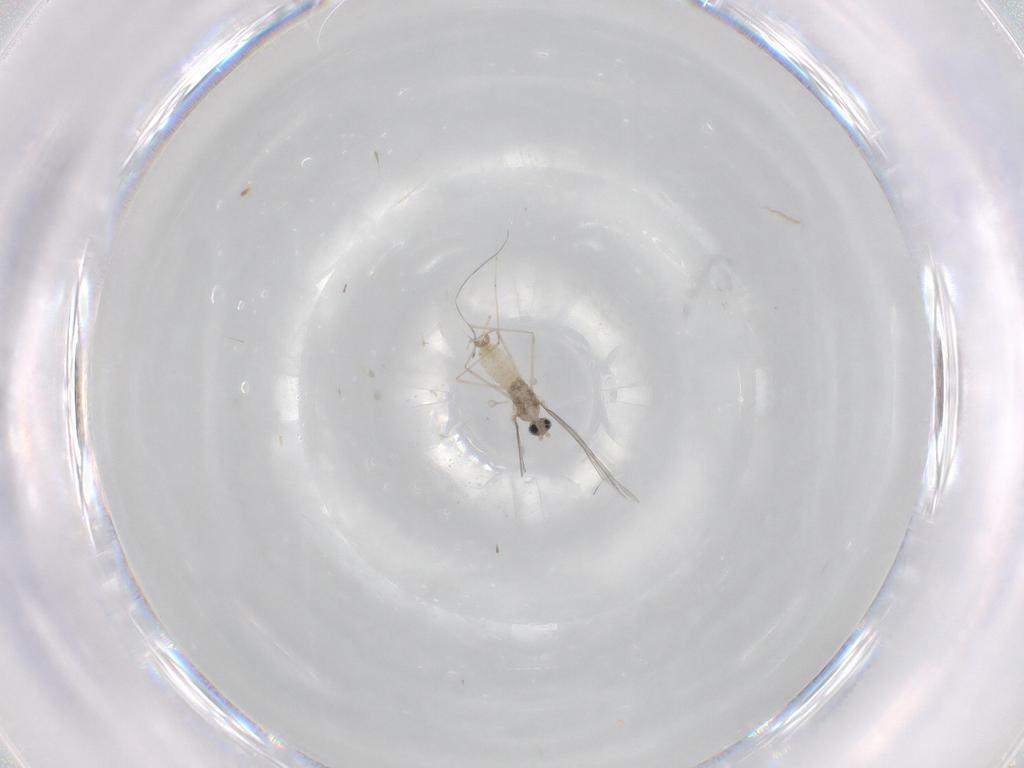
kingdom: Animalia
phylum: Arthropoda
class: Insecta
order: Diptera
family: Cecidomyiidae
